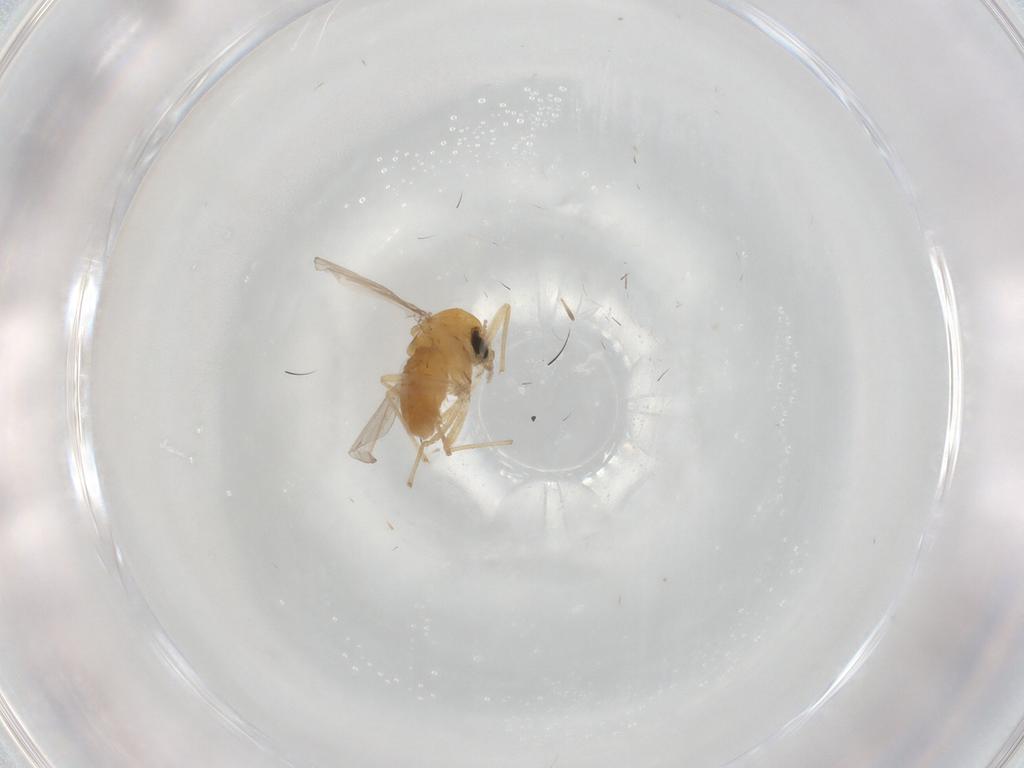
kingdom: Animalia
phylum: Arthropoda
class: Insecta
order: Diptera
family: Chironomidae
